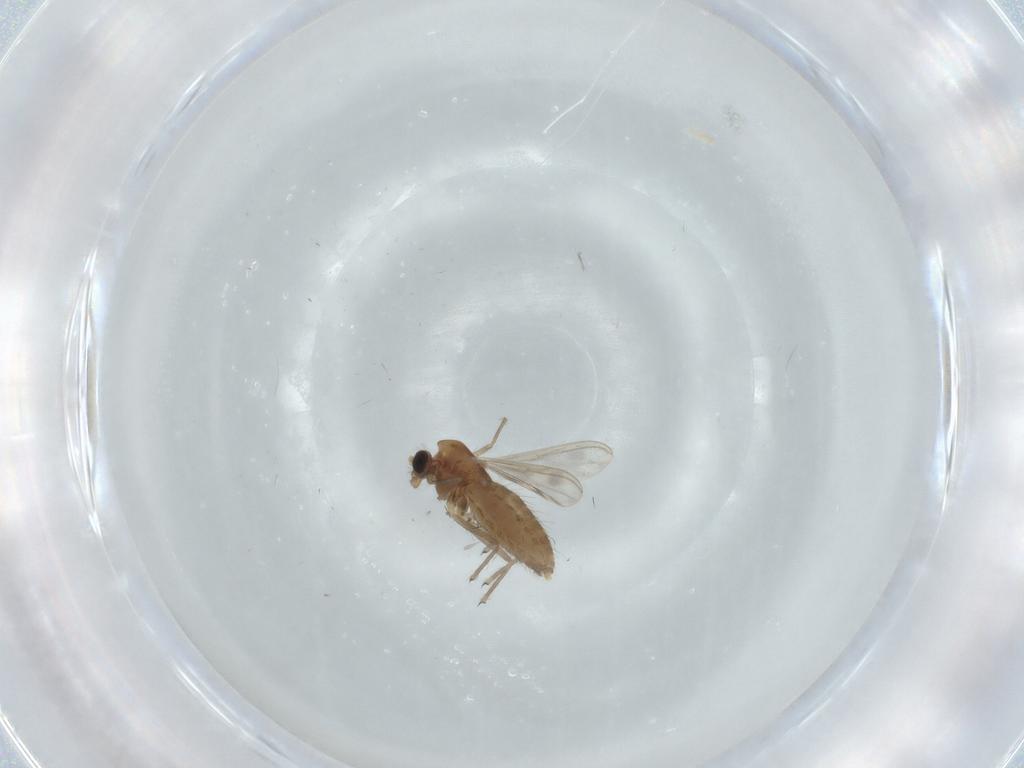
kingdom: Animalia
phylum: Arthropoda
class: Insecta
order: Diptera
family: Chironomidae
